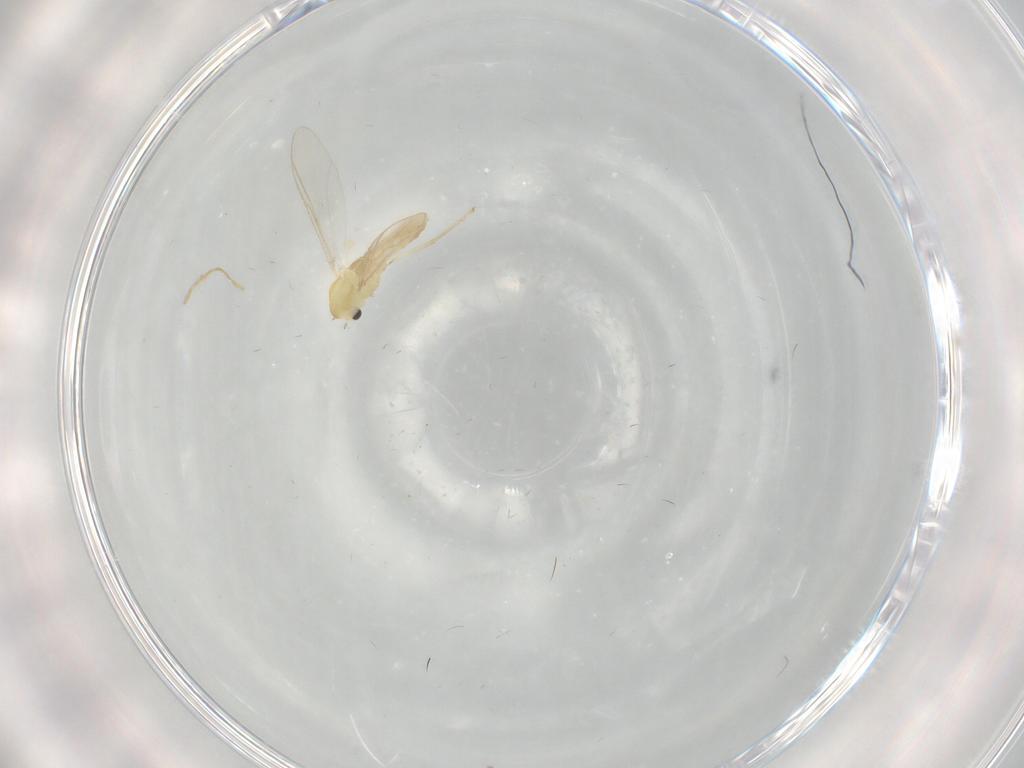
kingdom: Animalia
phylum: Arthropoda
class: Insecta
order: Diptera
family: Chironomidae
